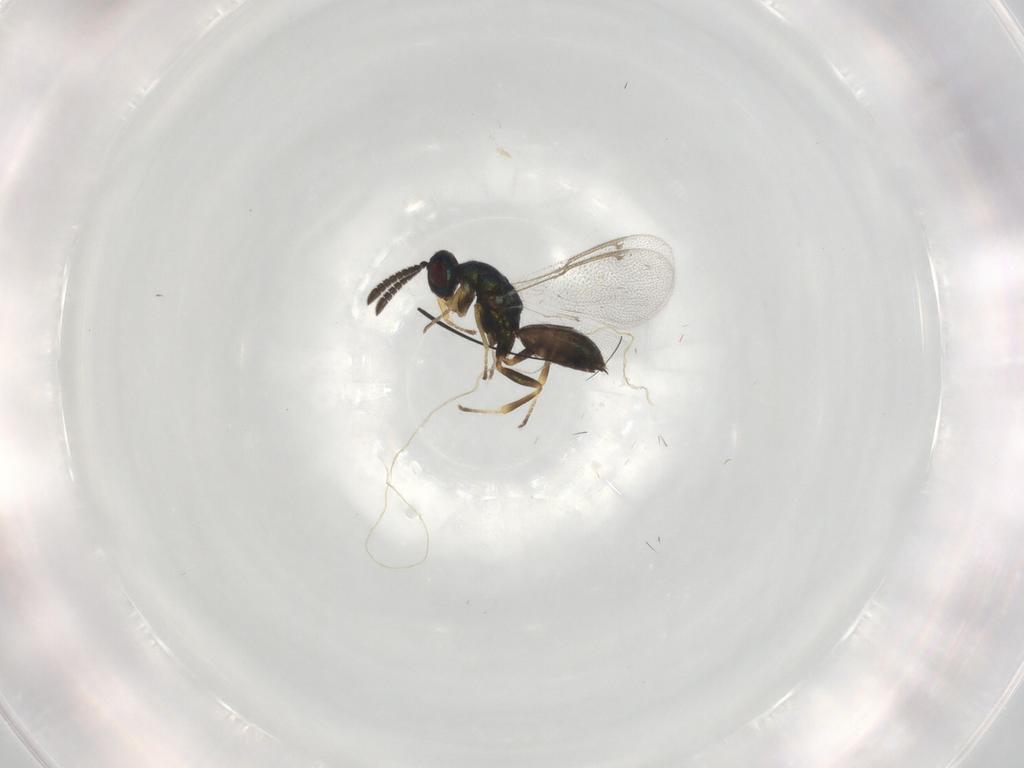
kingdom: Animalia
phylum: Arthropoda
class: Insecta
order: Hymenoptera
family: Torymidae
